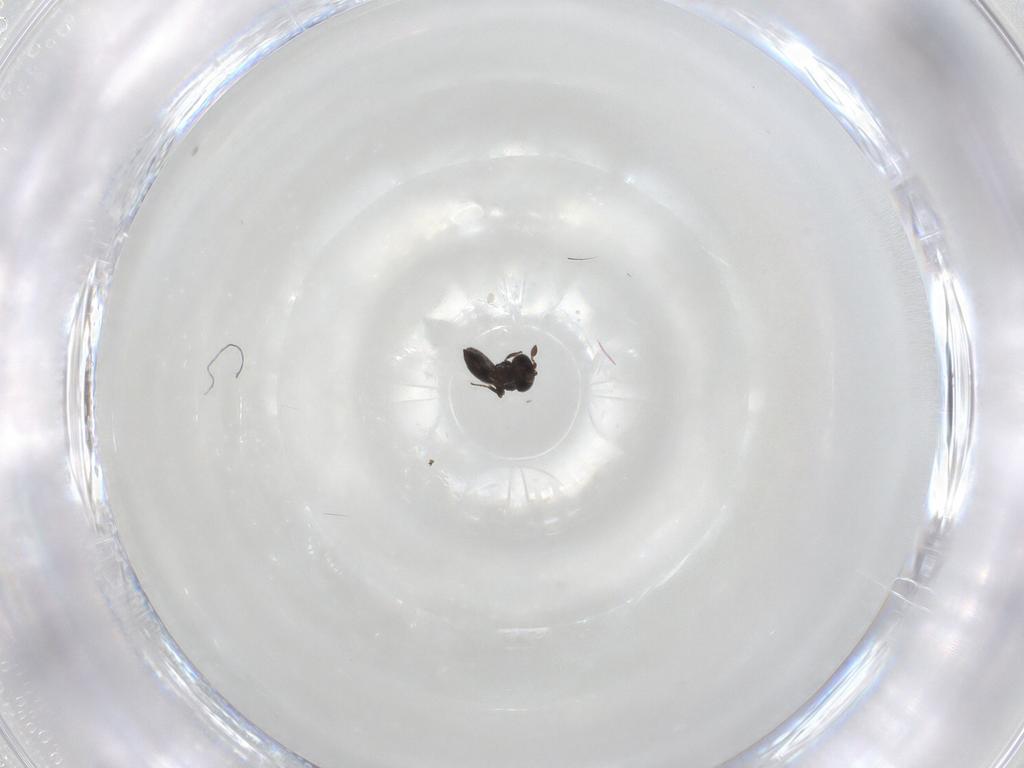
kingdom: Animalia
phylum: Arthropoda
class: Insecta
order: Hymenoptera
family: Scelionidae
